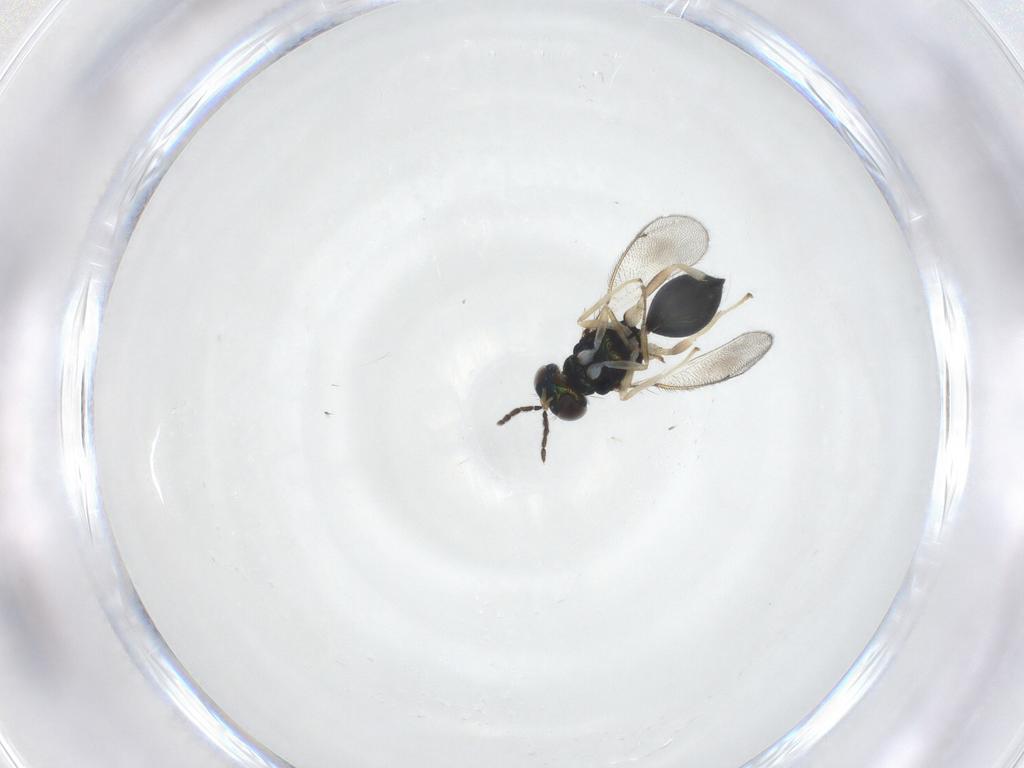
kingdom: Animalia
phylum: Arthropoda
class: Insecta
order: Hymenoptera
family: Eulophidae
